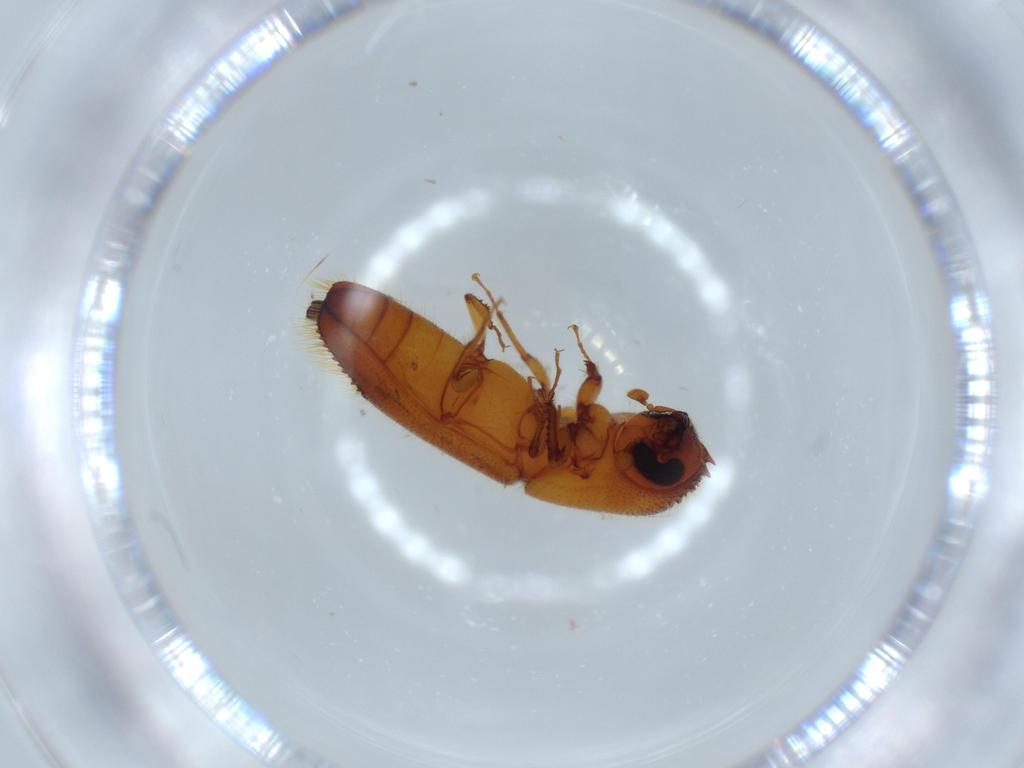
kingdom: Animalia
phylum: Arthropoda
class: Insecta
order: Coleoptera
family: Curculionidae
